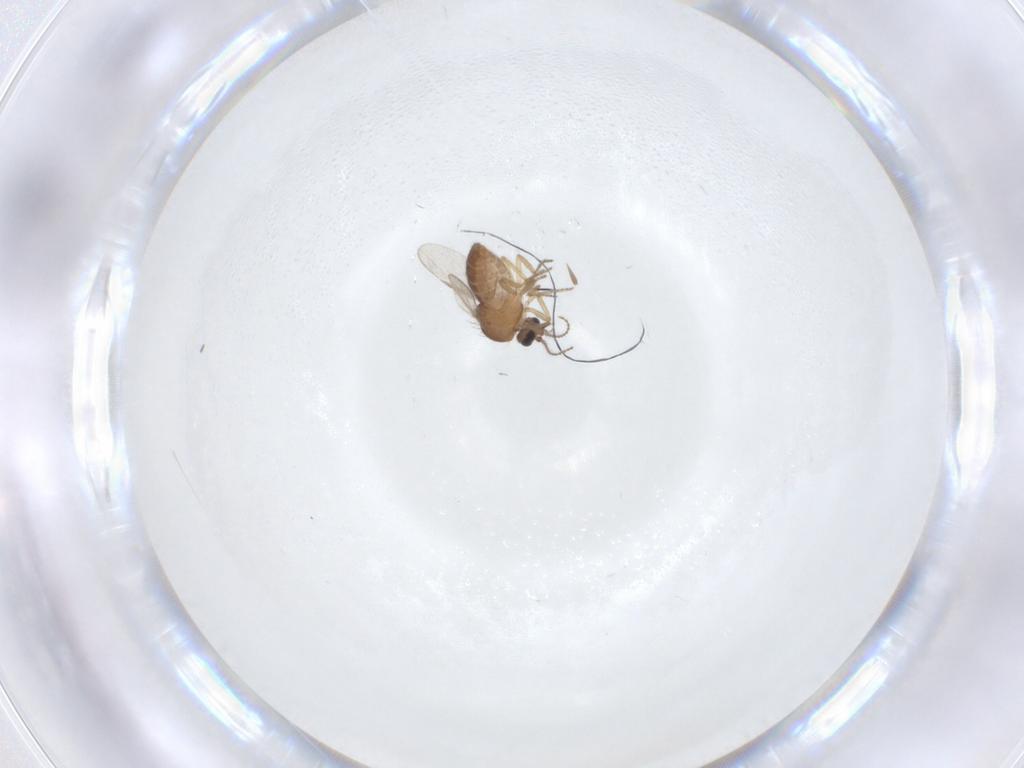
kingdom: Animalia
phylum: Arthropoda
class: Insecta
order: Diptera
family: Ceratopogonidae
